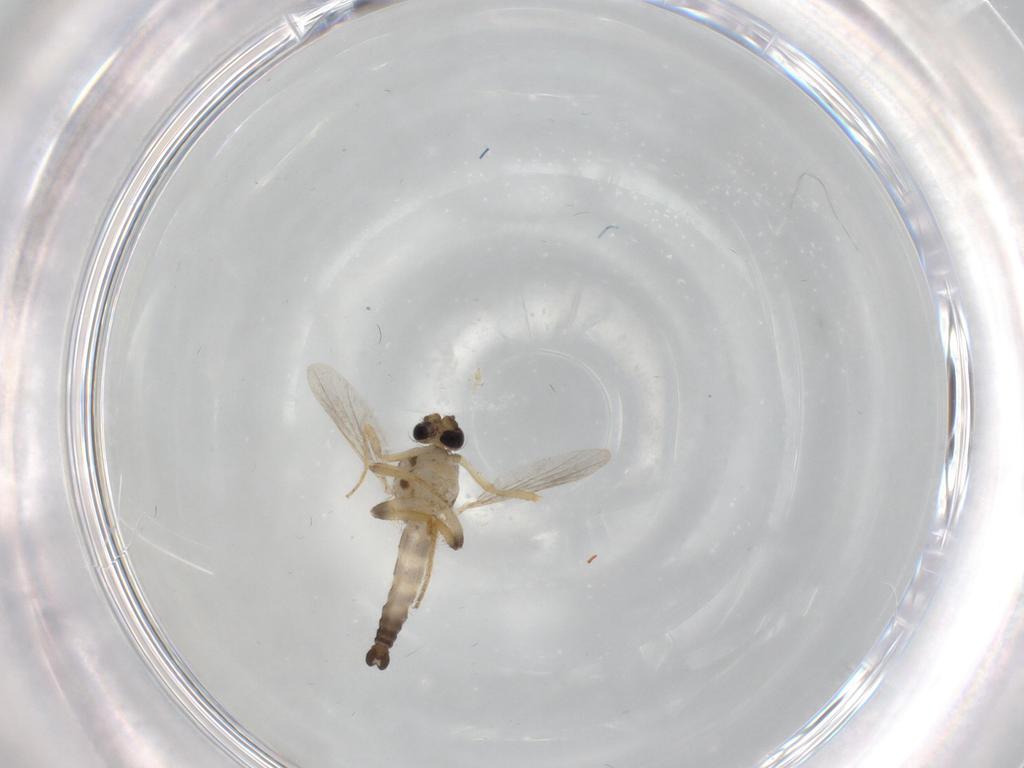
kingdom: Animalia
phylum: Arthropoda
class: Insecta
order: Diptera
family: Ceratopogonidae
